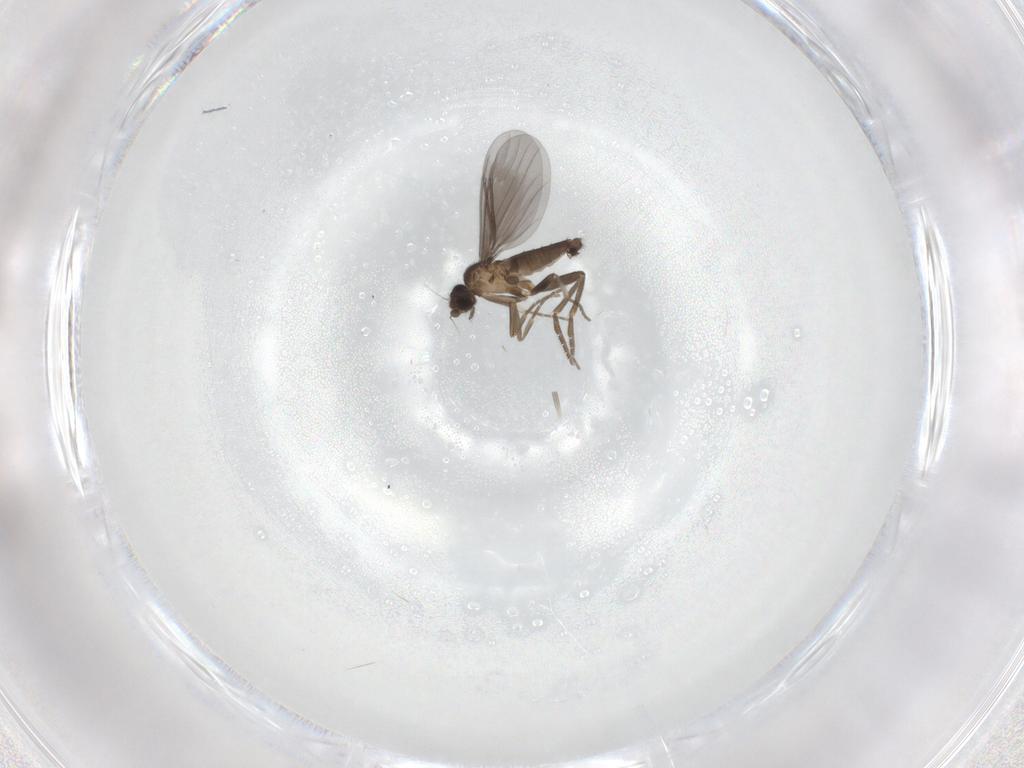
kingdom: Animalia
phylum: Arthropoda
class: Insecta
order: Diptera
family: Phoridae
